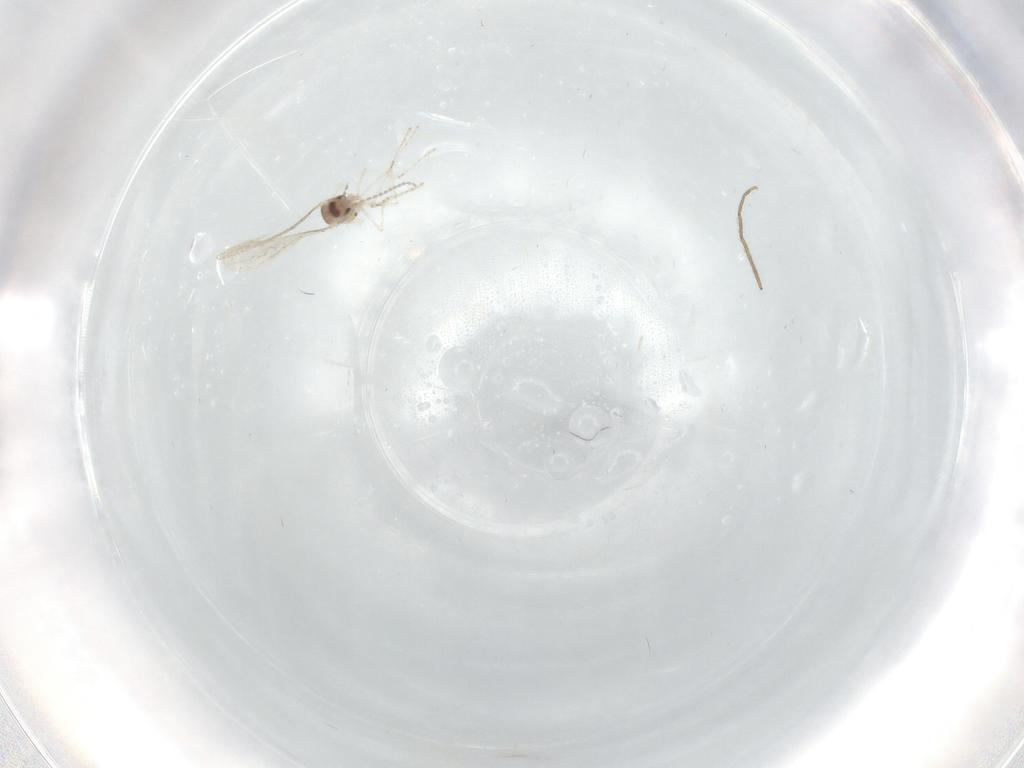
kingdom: Animalia
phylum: Arthropoda
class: Insecta
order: Diptera
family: Cecidomyiidae
